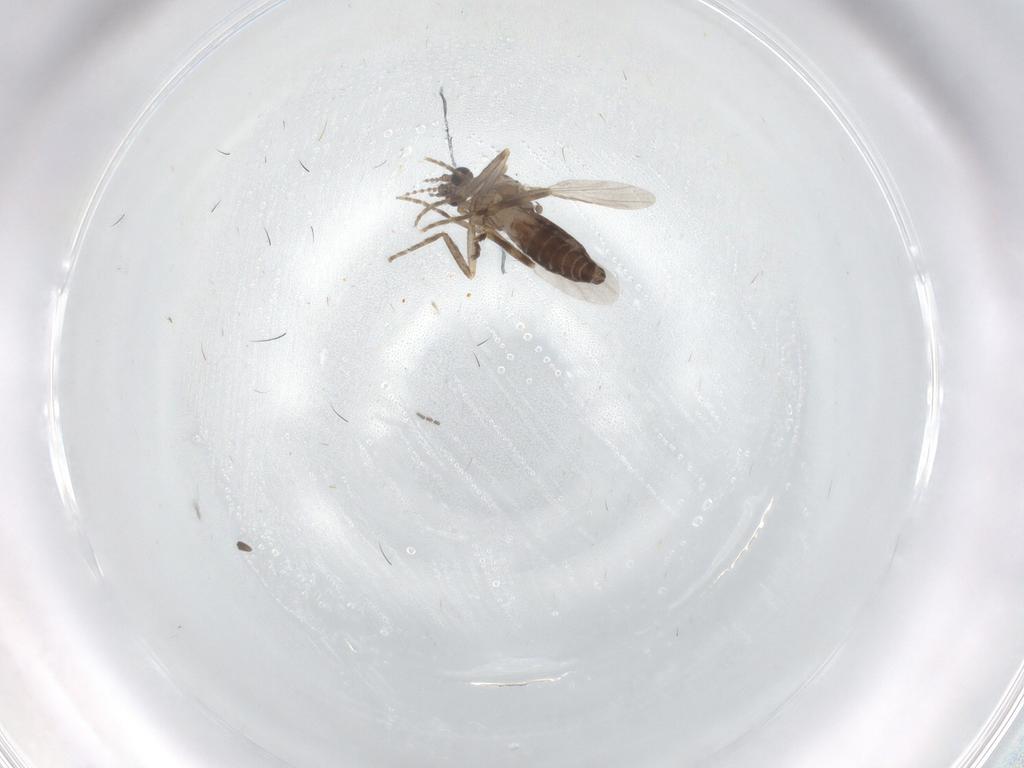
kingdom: Animalia
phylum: Arthropoda
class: Insecta
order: Diptera
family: Ceratopogonidae
